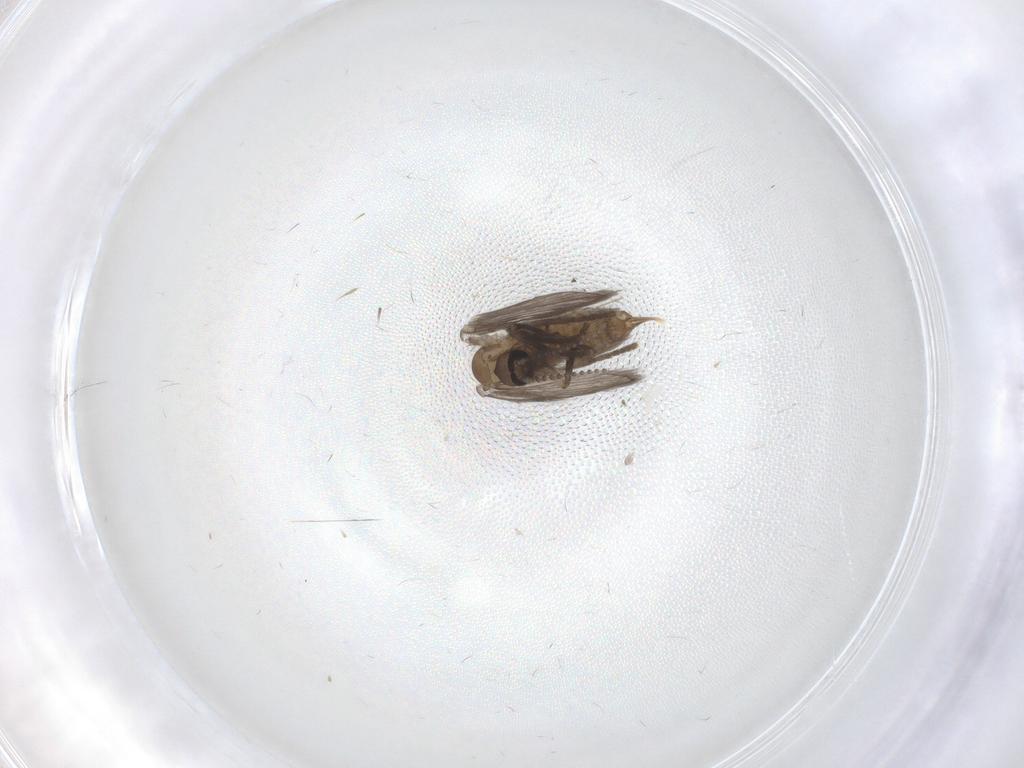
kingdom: Animalia
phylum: Arthropoda
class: Insecta
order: Diptera
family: Psychodidae
